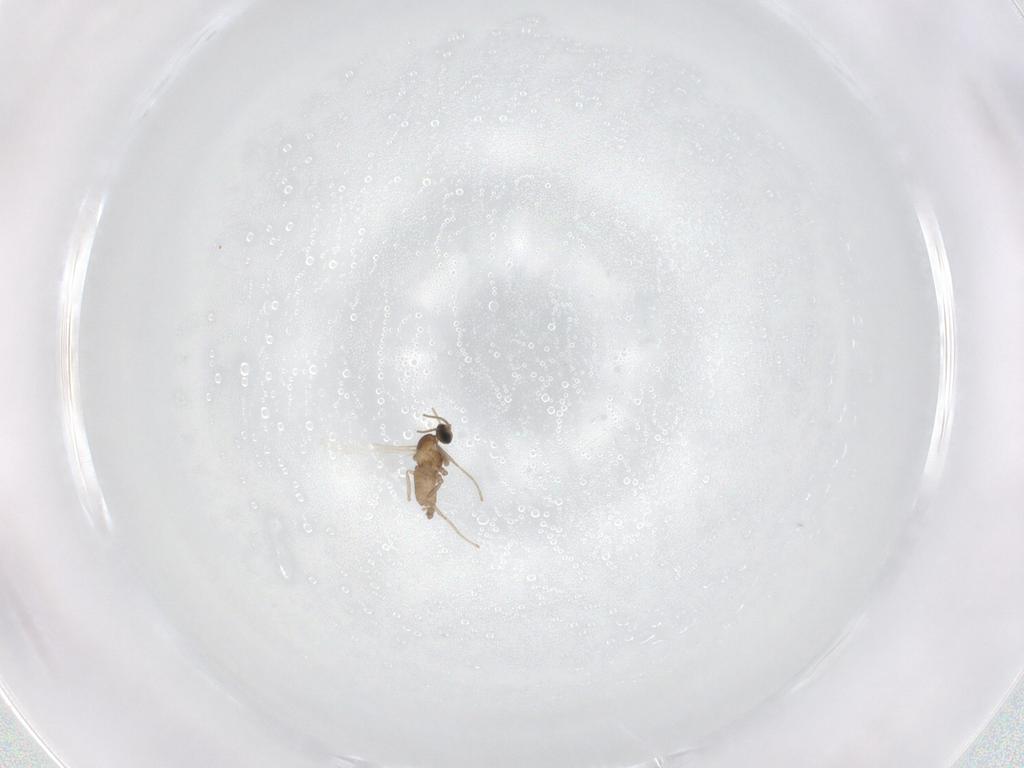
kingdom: Animalia
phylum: Arthropoda
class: Insecta
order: Diptera
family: Cecidomyiidae
